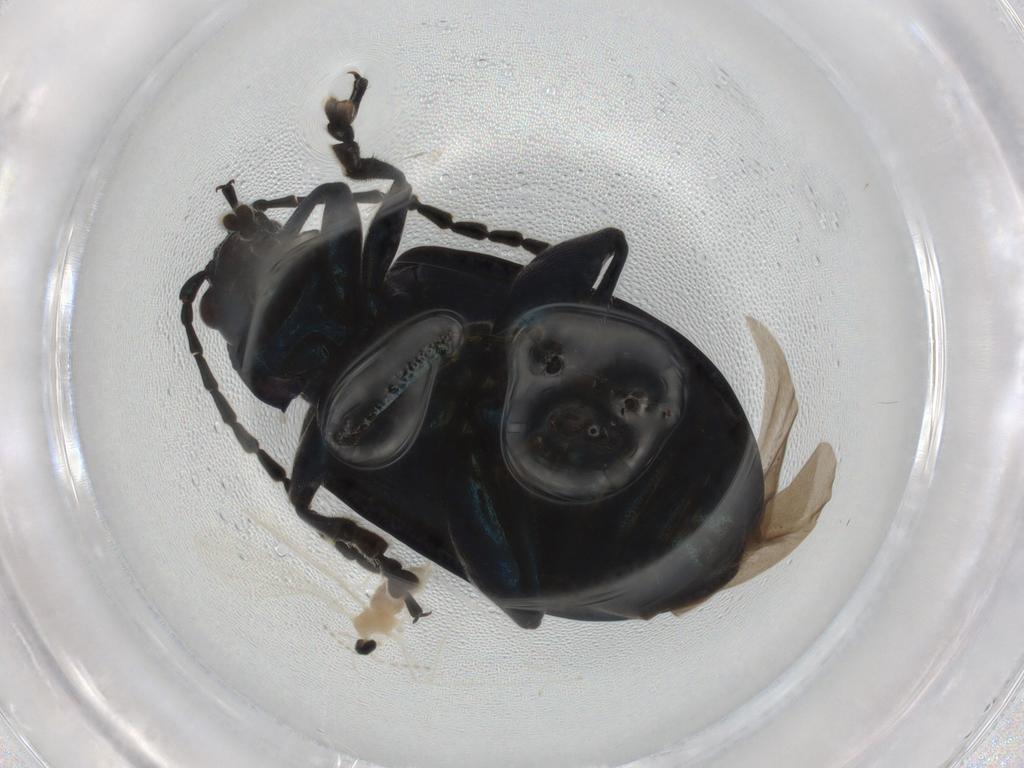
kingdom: Animalia
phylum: Arthropoda
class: Insecta
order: Coleoptera
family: Chrysomelidae
